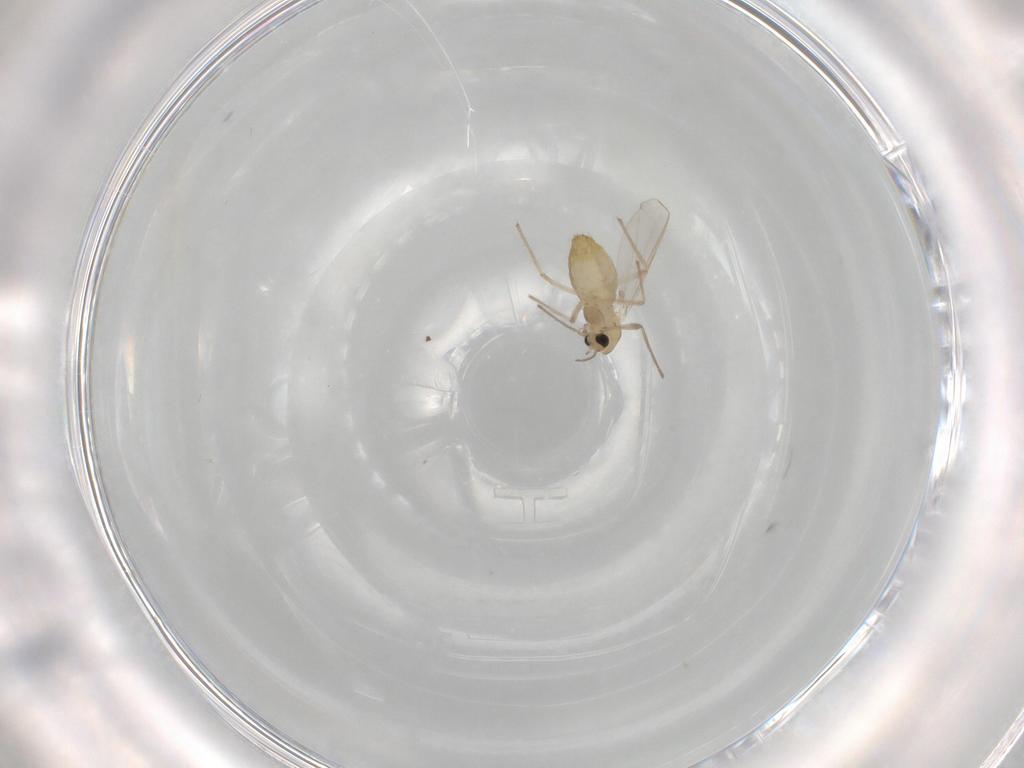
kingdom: Animalia
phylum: Arthropoda
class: Insecta
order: Diptera
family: Chironomidae
